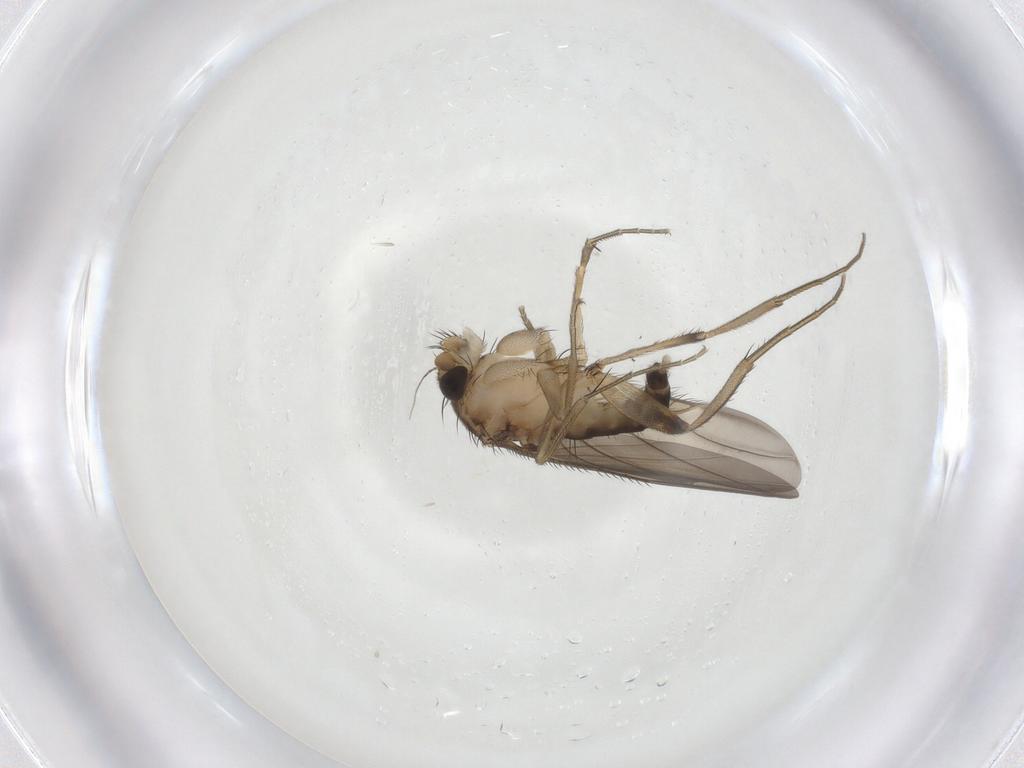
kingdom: Animalia
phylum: Arthropoda
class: Insecta
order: Diptera
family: Phoridae
